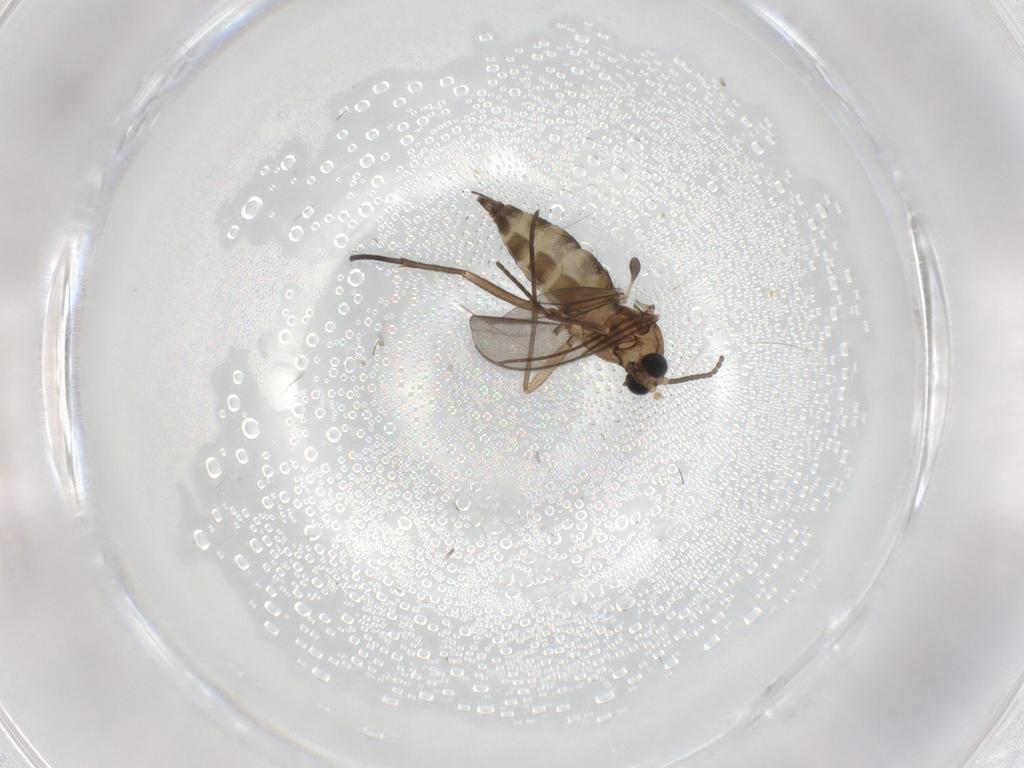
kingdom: Animalia
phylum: Arthropoda
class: Insecta
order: Diptera
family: Sciaridae
